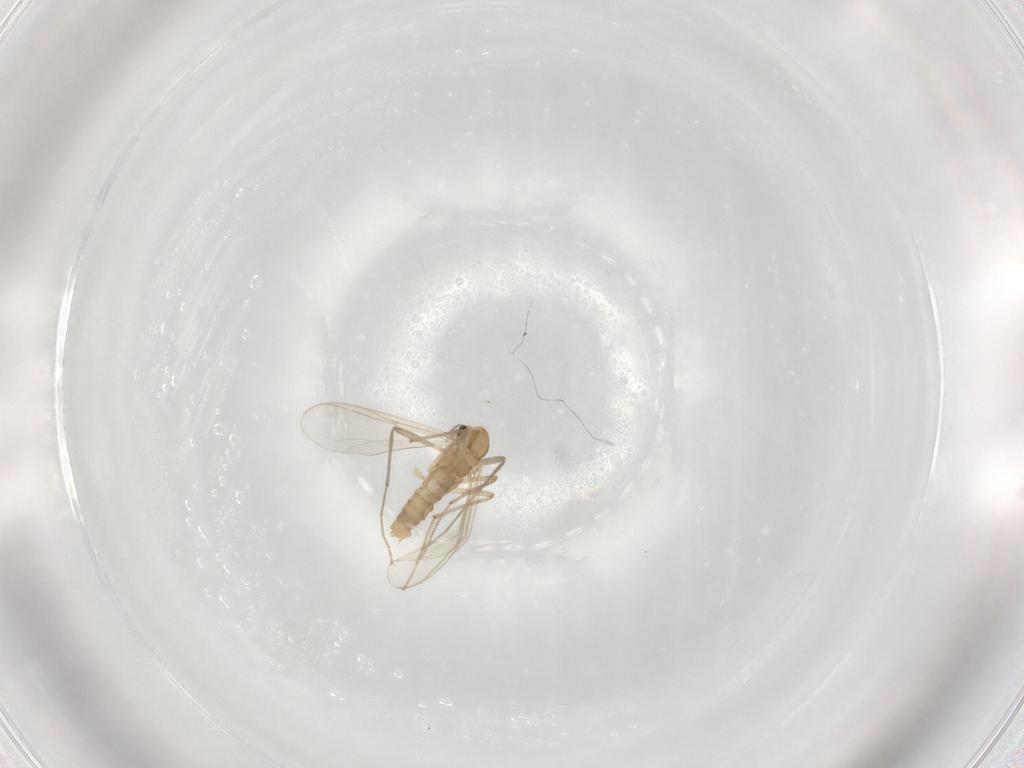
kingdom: Animalia
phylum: Arthropoda
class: Insecta
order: Diptera
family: Chironomidae
